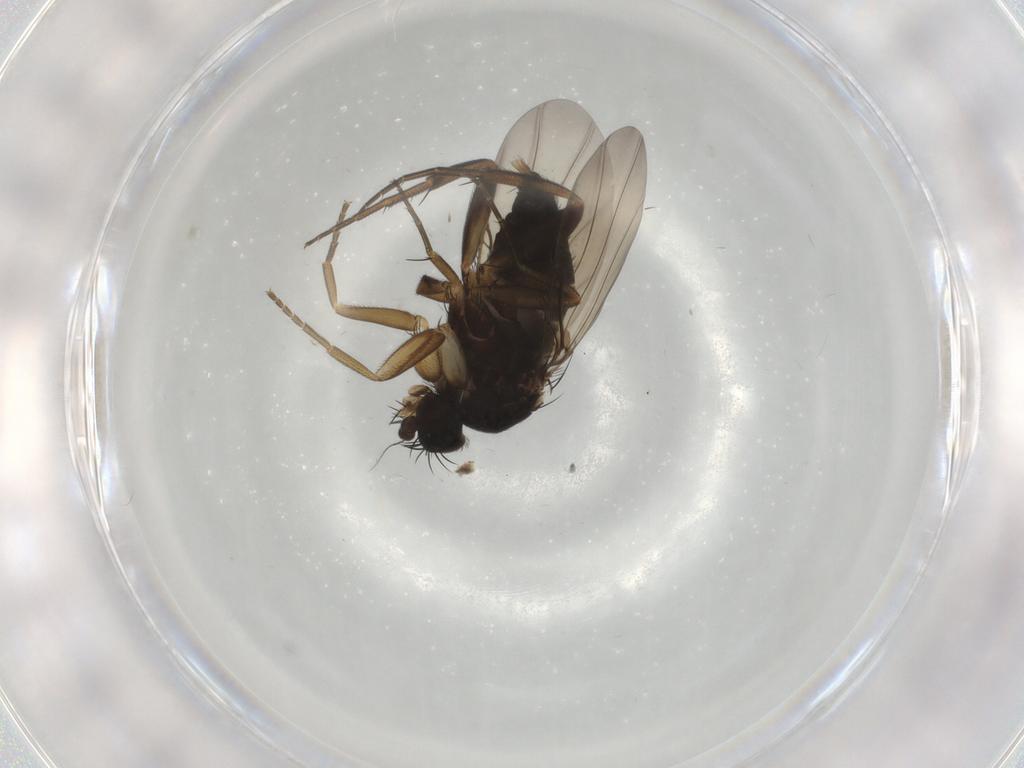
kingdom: Animalia
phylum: Arthropoda
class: Insecta
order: Diptera
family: Phoridae
